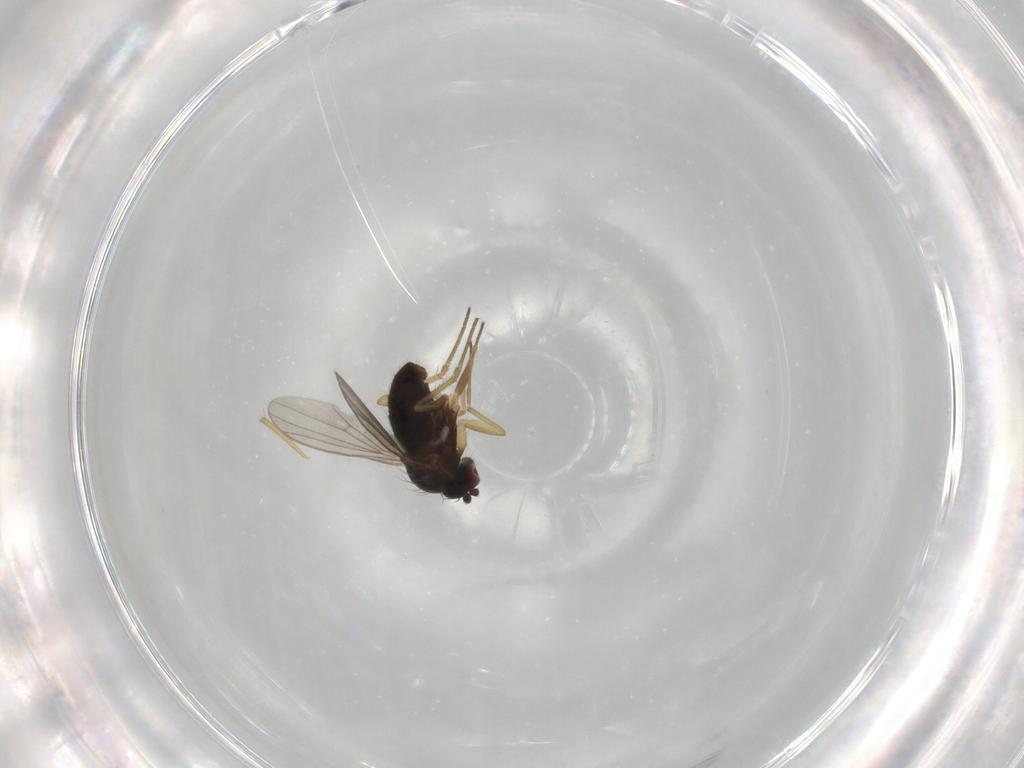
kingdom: Animalia
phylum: Arthropoda
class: Insecta
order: Diptera
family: Dolichopodidae
